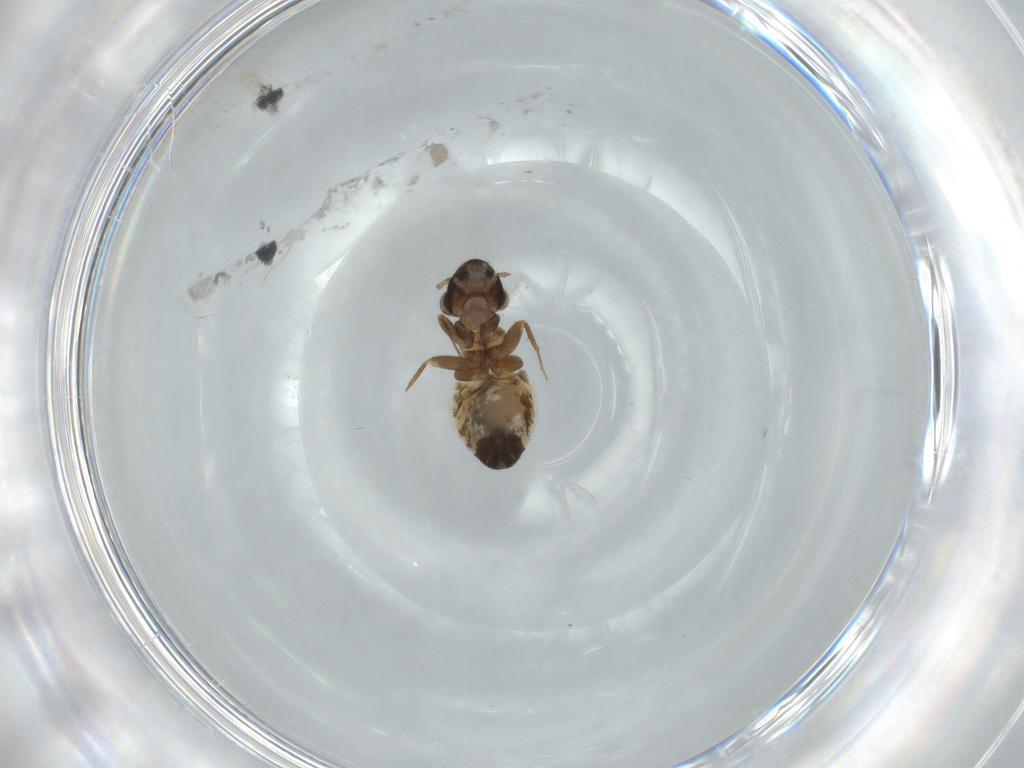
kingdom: Animalia
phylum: Arthropoda
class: Insecta
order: Psocodea
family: Lepidopsocidae
